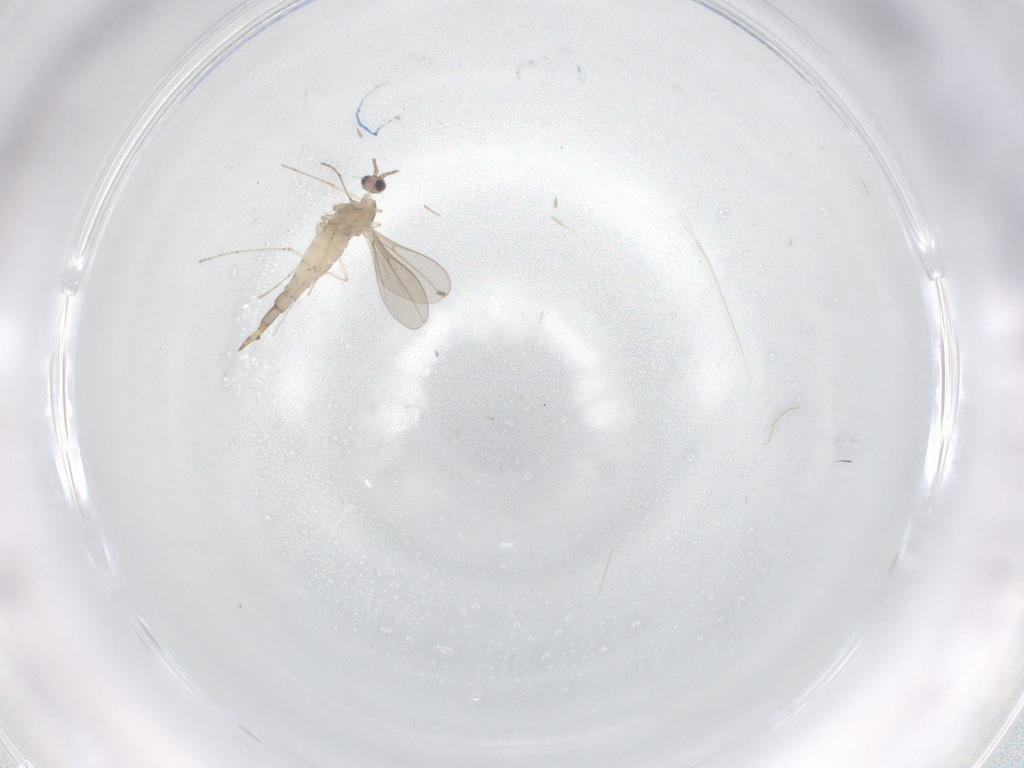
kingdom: Animalia
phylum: Arthropoda
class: Insecta
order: Diptera
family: Cecidomyiidae
